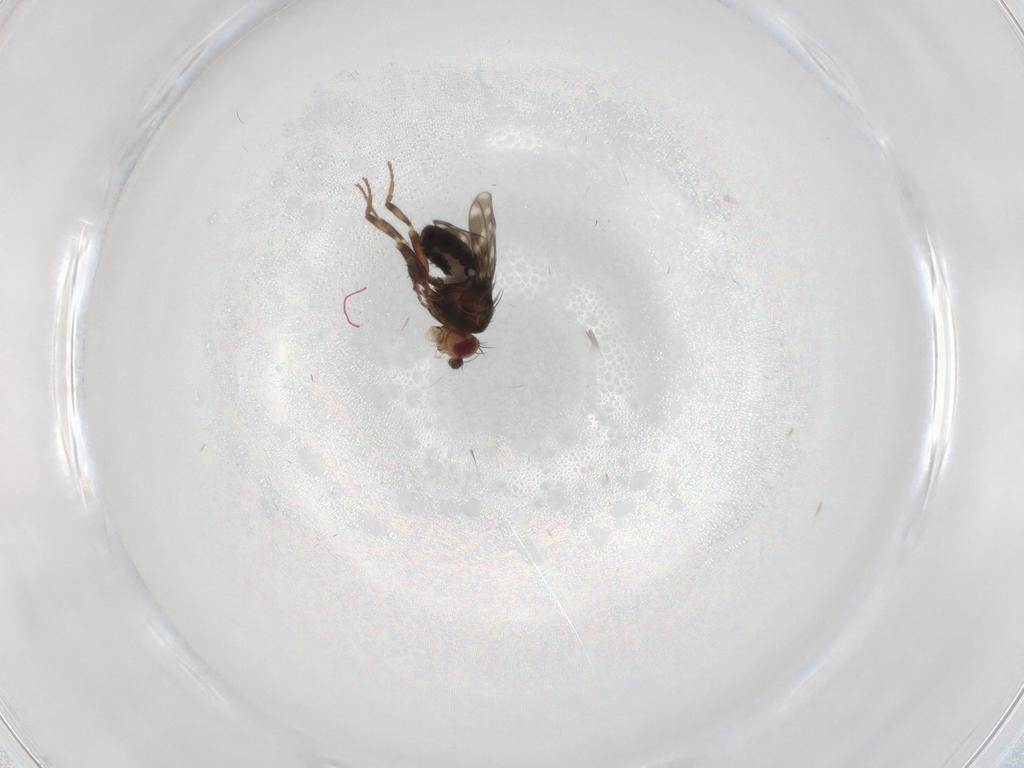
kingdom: Animalia
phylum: Arthropoda
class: Insecta
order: Diptera
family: Sphaeroceridae
